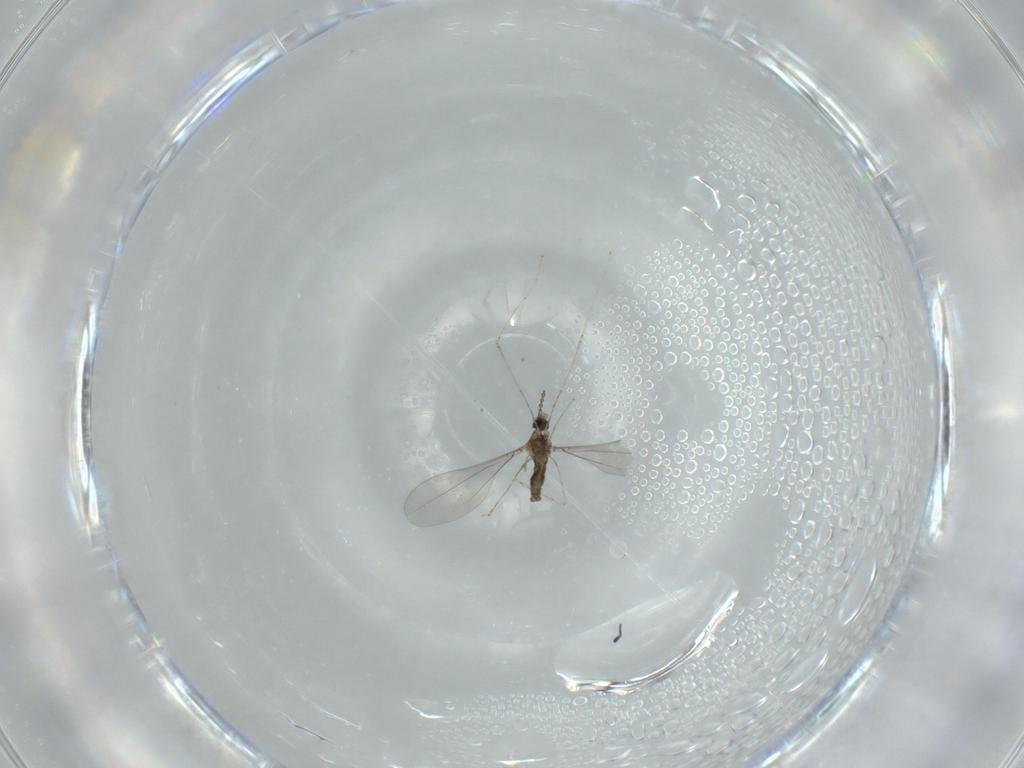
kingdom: Animalia
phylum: Arthropoda
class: Insecta
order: Diptera
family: Cecidomyiidae
